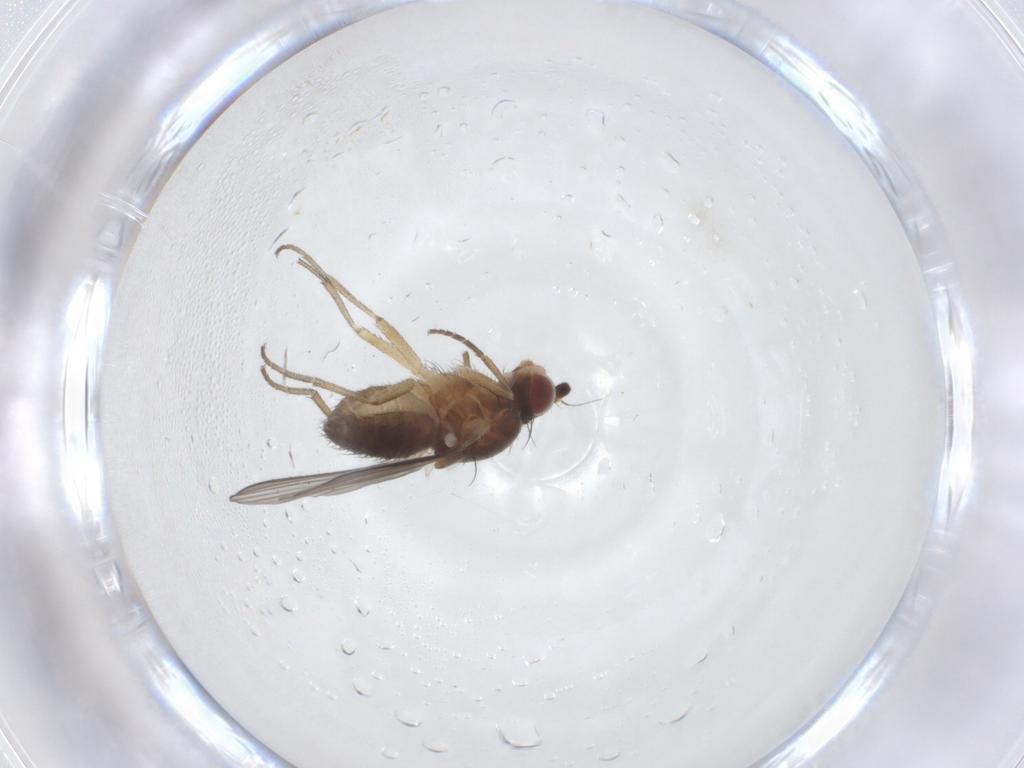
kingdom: Animalia
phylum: Arthropoda
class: Insecta
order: Diptera
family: Heleomyzidae
